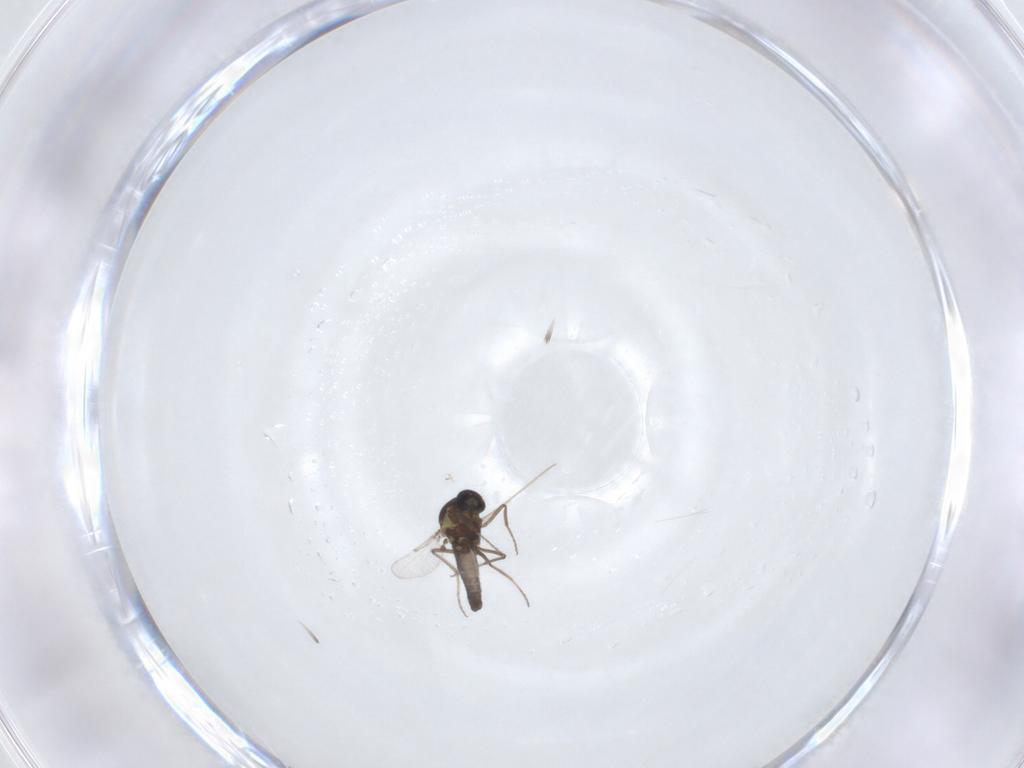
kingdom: Animalia
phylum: Arthropoda
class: Insecta
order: Diptera
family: Ceratopogonidae
